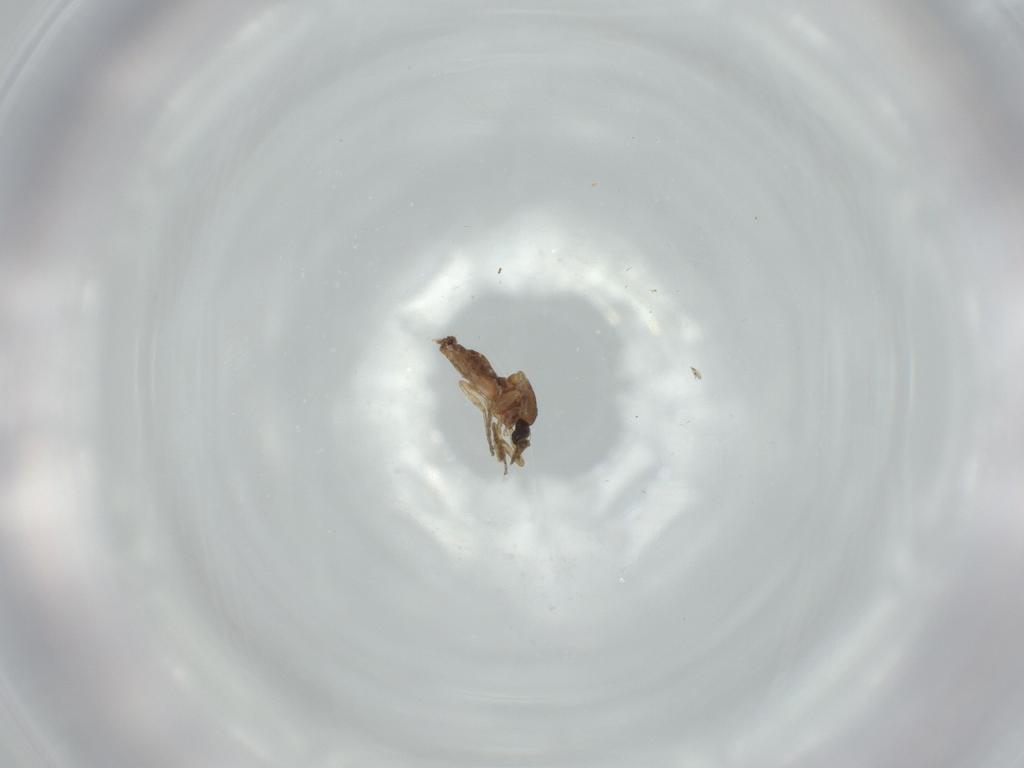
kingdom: Animalia
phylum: Arthropoda
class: Insecta
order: Diptera
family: Ceratopogonidae
